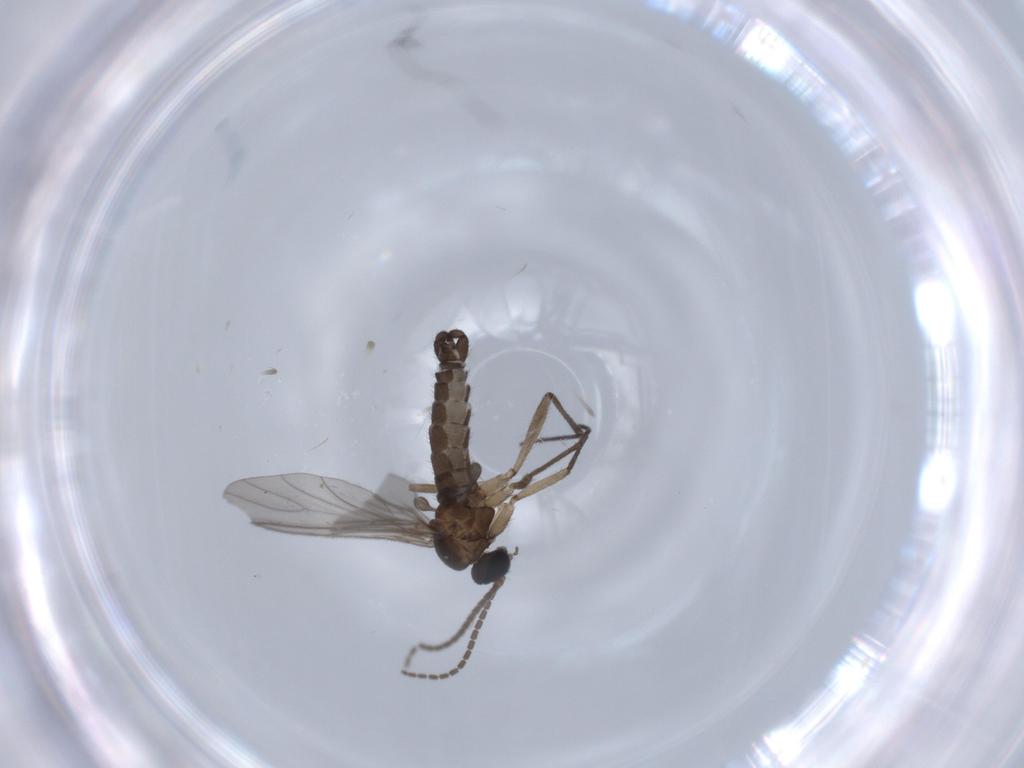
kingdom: Animalia
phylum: Arthropoda
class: Insecta
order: Diptera
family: Sciaridae
